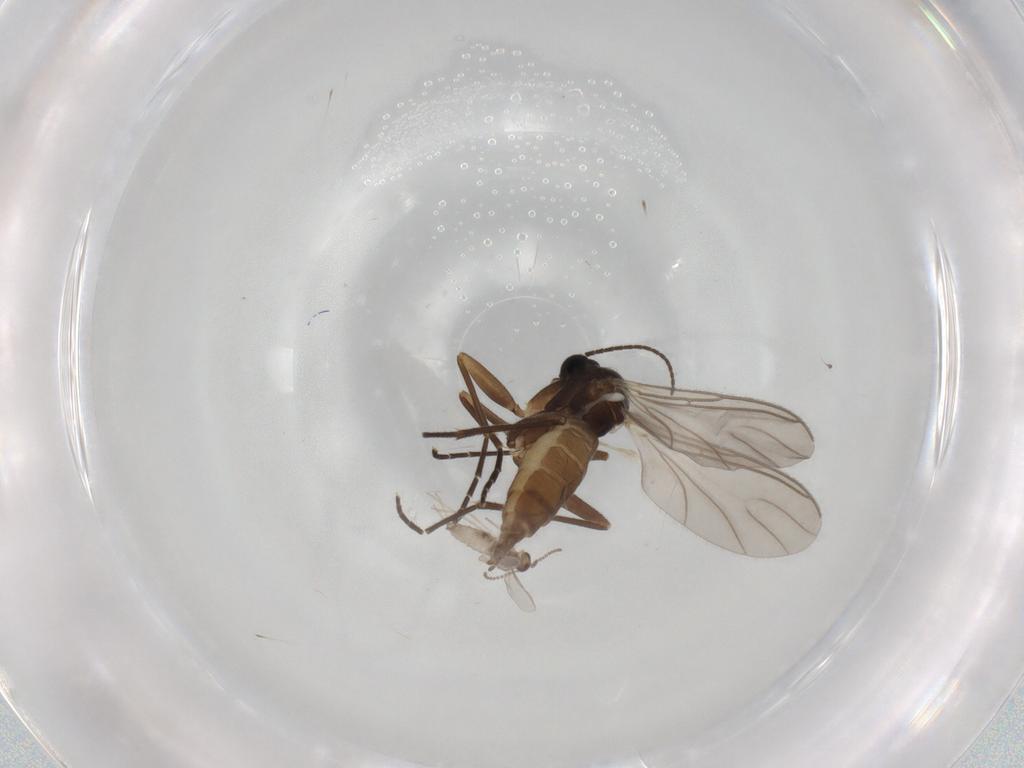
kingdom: Animalia
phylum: Arthropoda
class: Insecta
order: Diptera
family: Sciaridae
